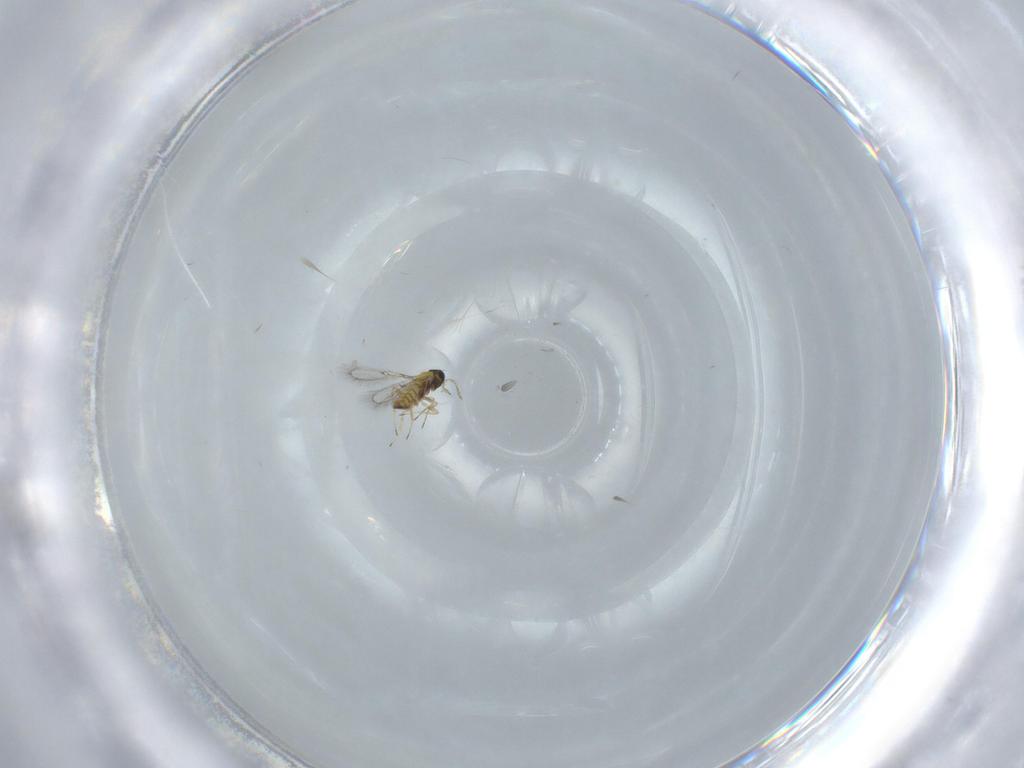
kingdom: Animalia
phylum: Arthropoda
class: Insecta
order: Hymenoptera
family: Trichogrammatidae
